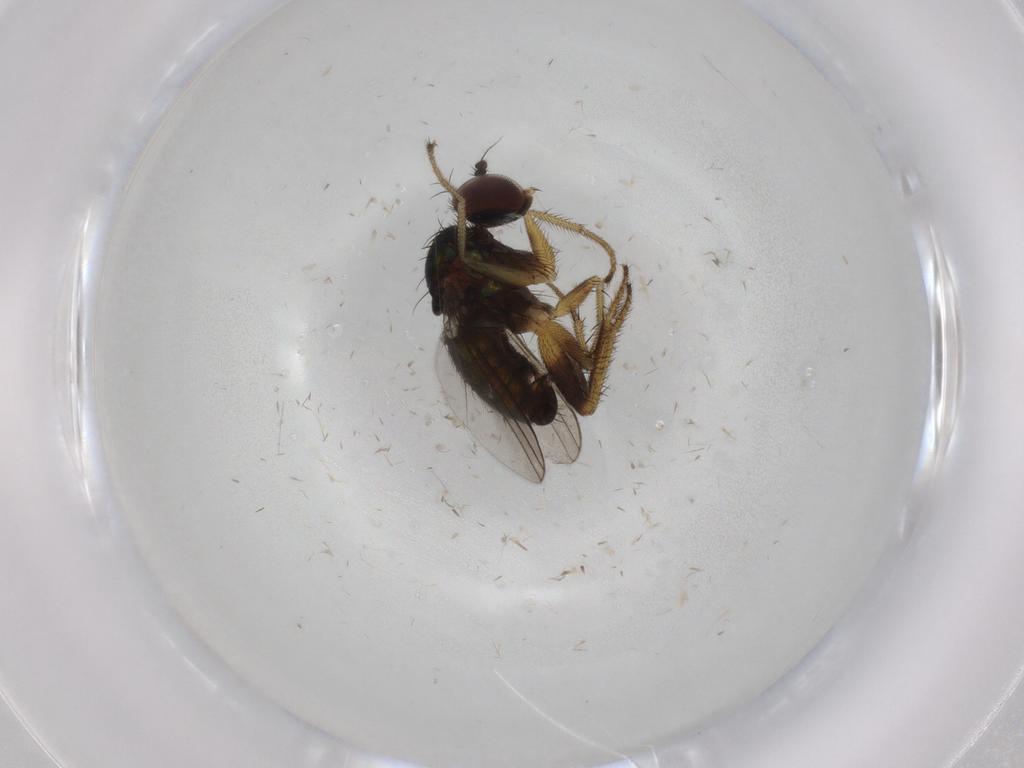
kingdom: Animalia
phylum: Arthropoda
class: Insecta
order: Diptera
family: Dolichopodidae
